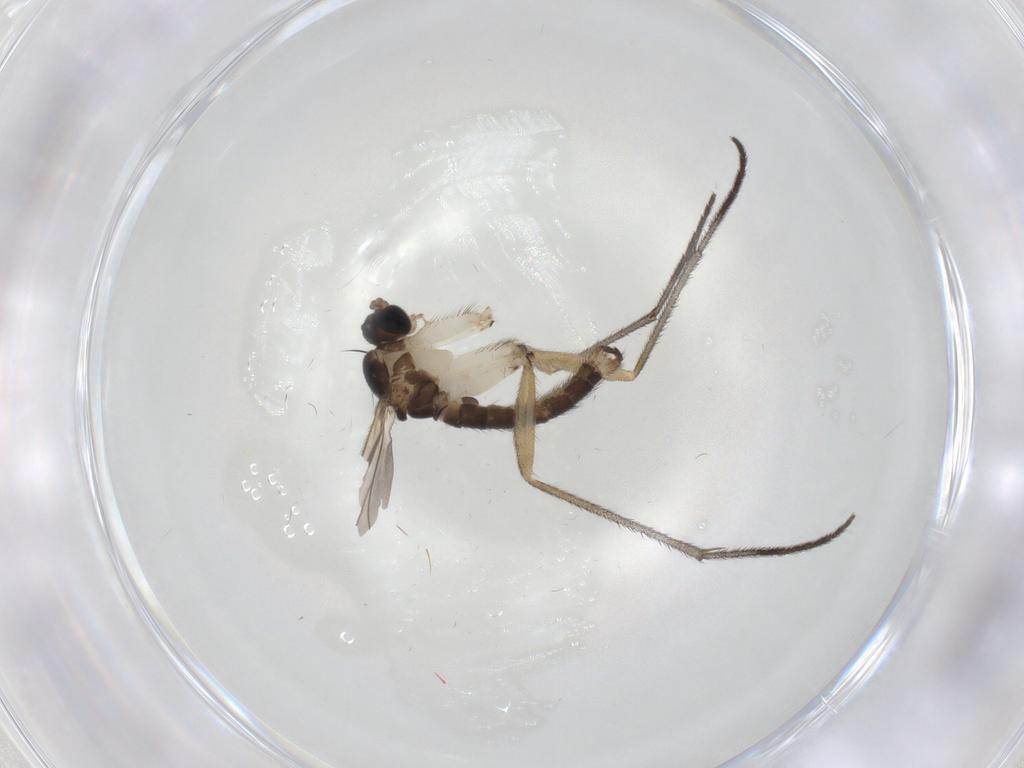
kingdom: Animalia
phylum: Arthropoda
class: Insecta
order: Diptera
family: Sciaridae
